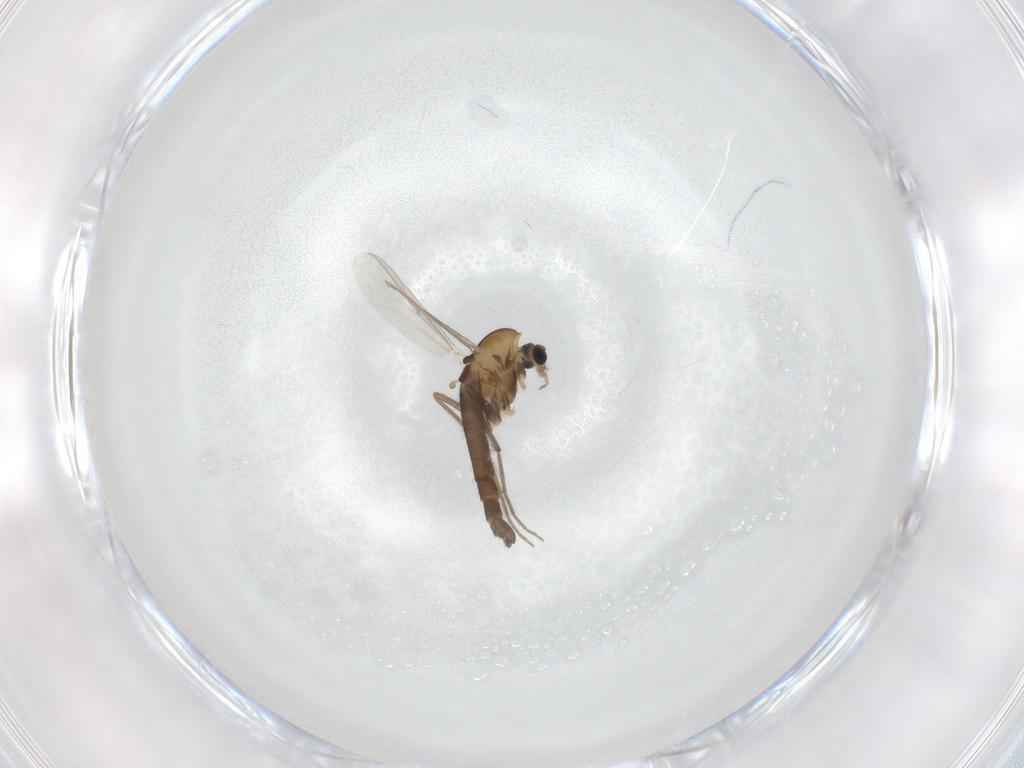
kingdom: Animalia
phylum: Arthropoda
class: Insecta
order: Diptera
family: Chironomidae
